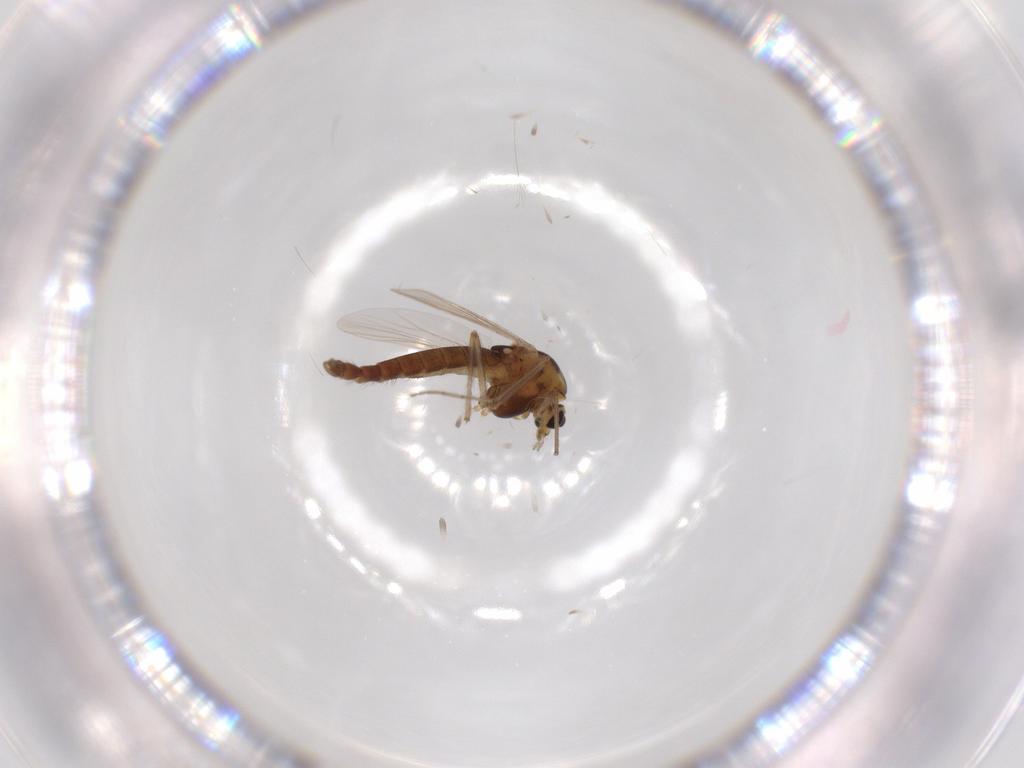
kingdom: Animalia
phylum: Arthropoda
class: Insecta
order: Diptera
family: Chironomidae
